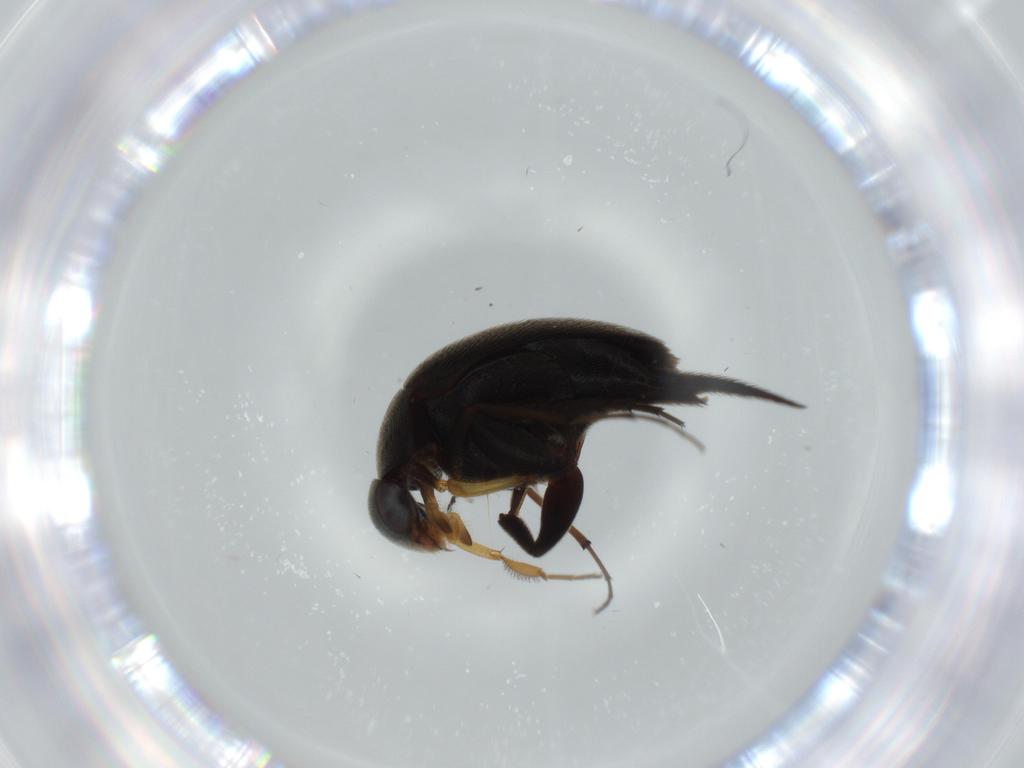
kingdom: Animalia
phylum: Arthropoda
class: Insecta
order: Coleoptera
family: Mordellidae
